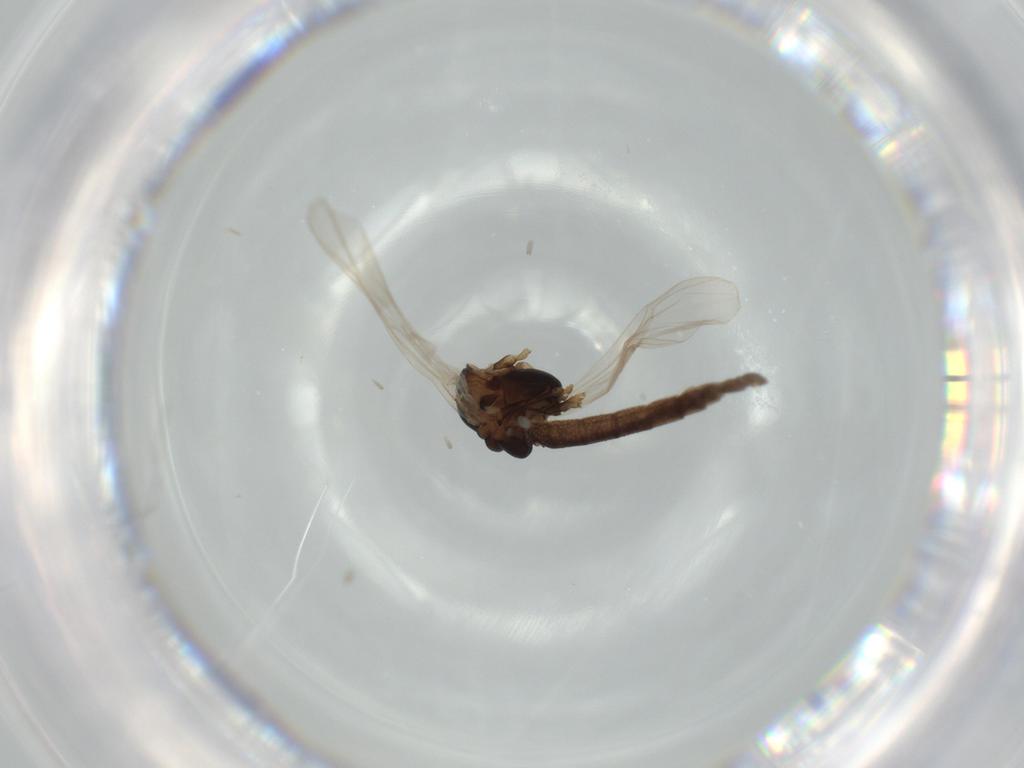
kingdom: Animalia
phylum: Arthropoda
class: Insecta
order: Diptera
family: Chironomidae
